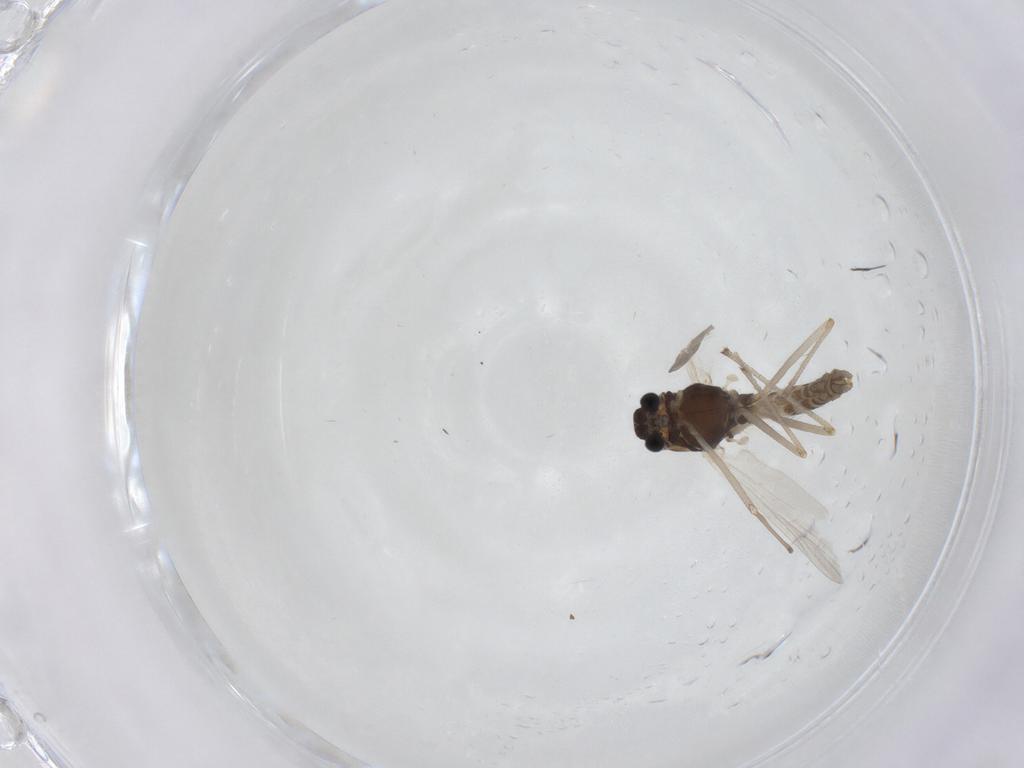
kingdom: Animalia
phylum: Arthropoda
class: Insecta
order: Diptera
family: Chironomidae
